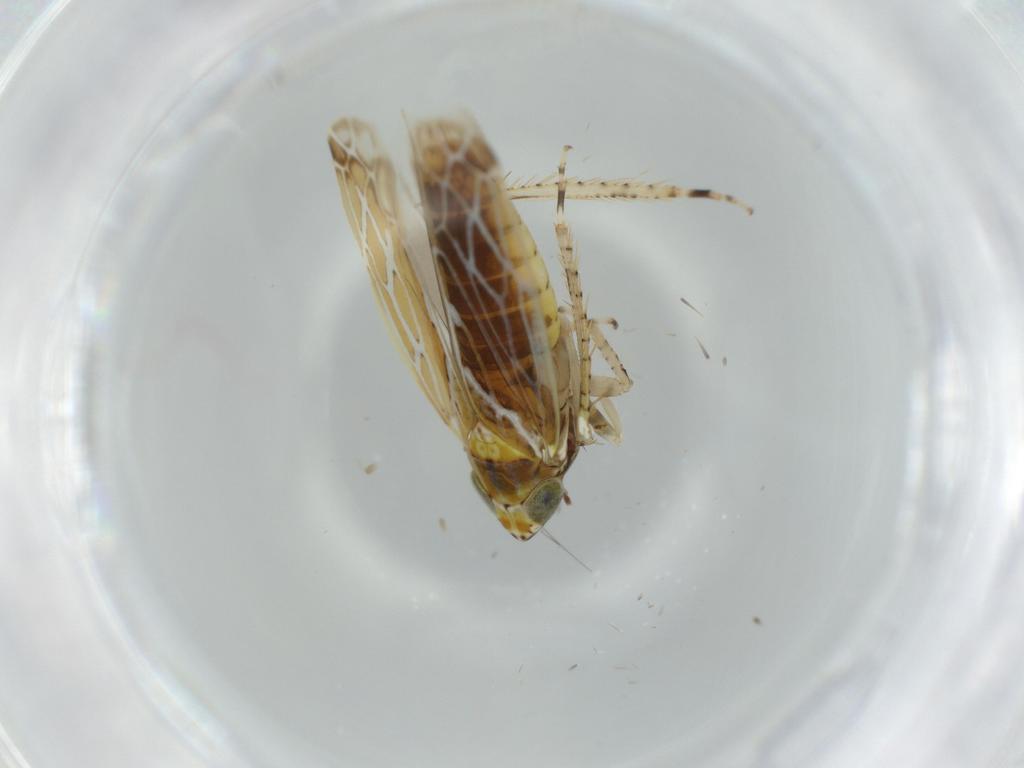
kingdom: Animalia
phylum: Arthropoda
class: Insecta
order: Hemiptera
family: Cicadellidae
